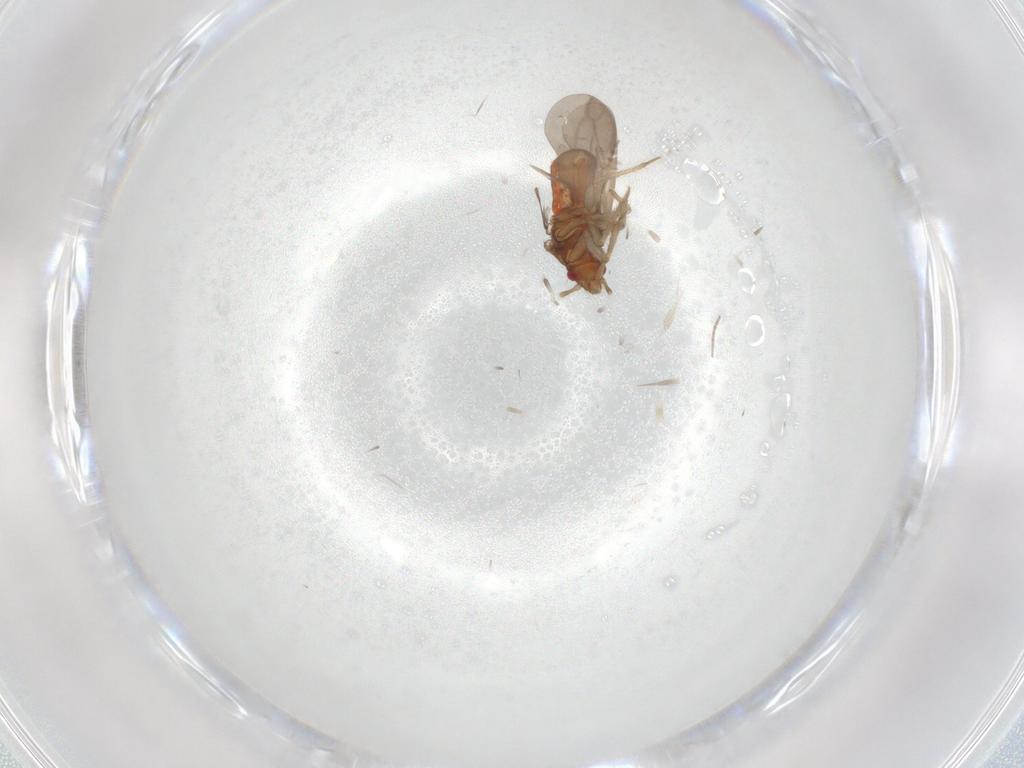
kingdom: Animalia
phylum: Arthropoda
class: Insecta
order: Hemiptera
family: Ceratocombidae
